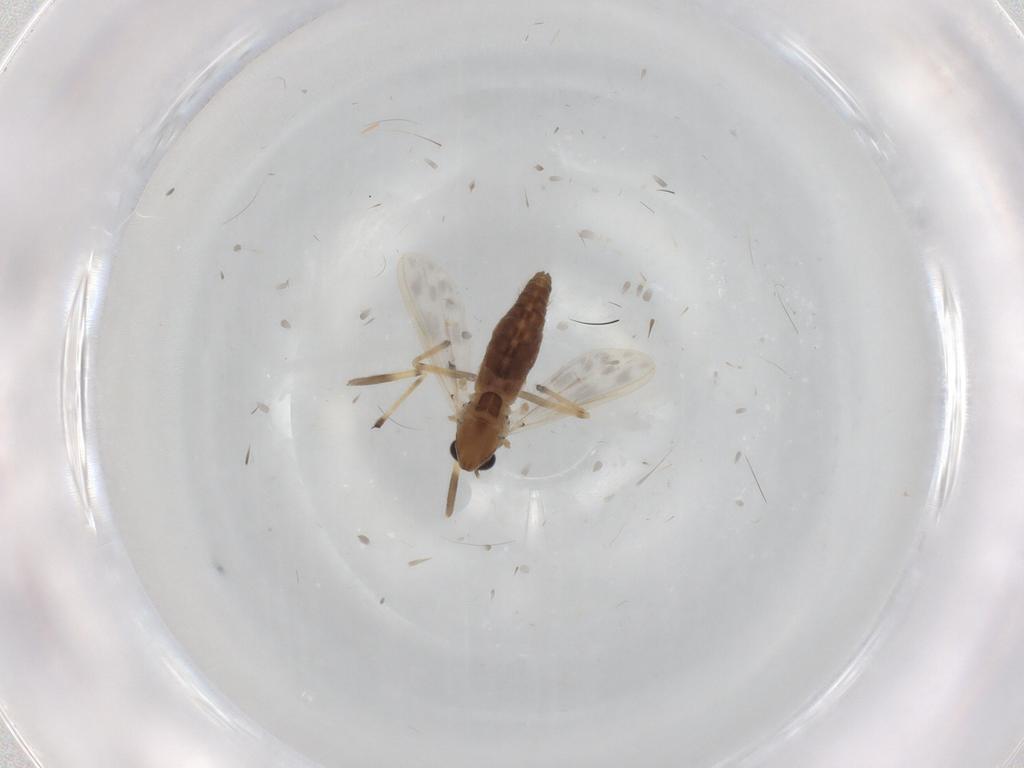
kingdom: Animalia
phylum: Arthropoda
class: Insecta
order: Diptera
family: Chironomidae
